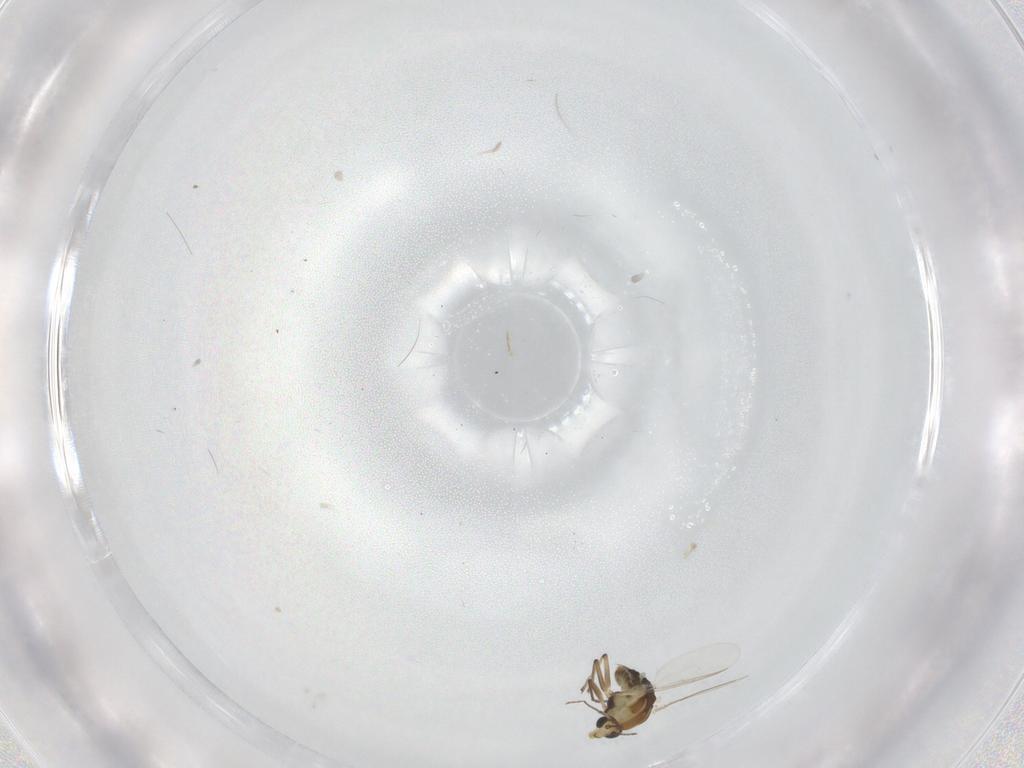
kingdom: Animalia
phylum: Arthropoda
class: Insecta
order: Diptera
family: Chironomidae
